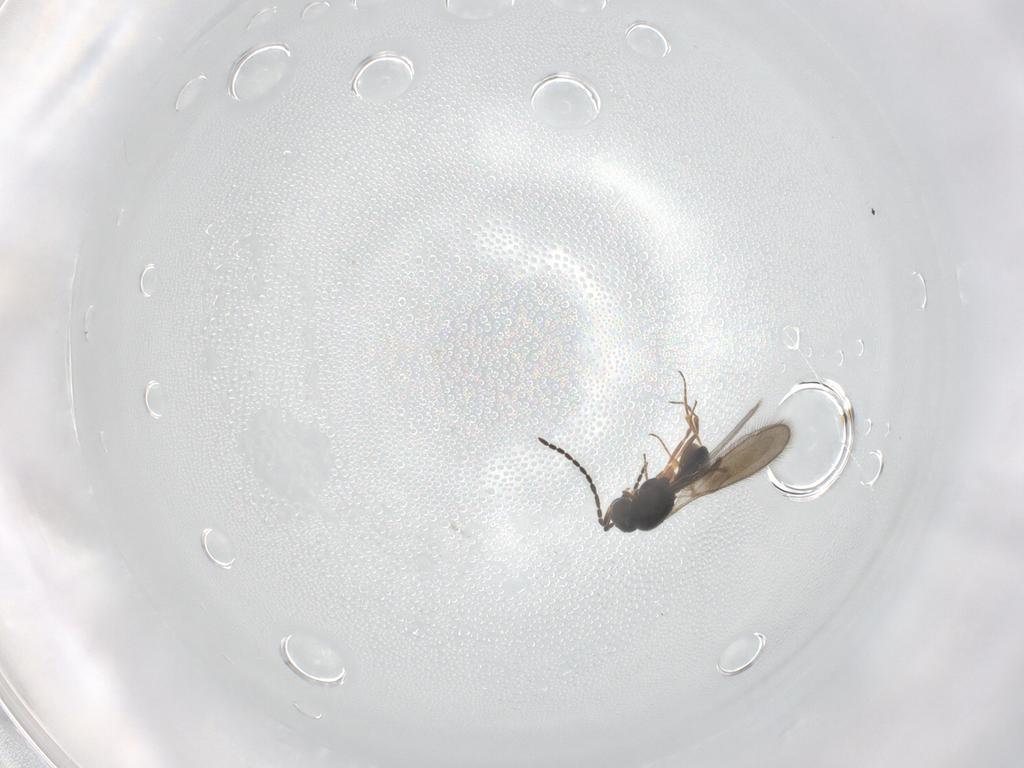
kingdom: Animalia
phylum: Arthropoda
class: Insecta
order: Hymenoptera
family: Scelionidae
